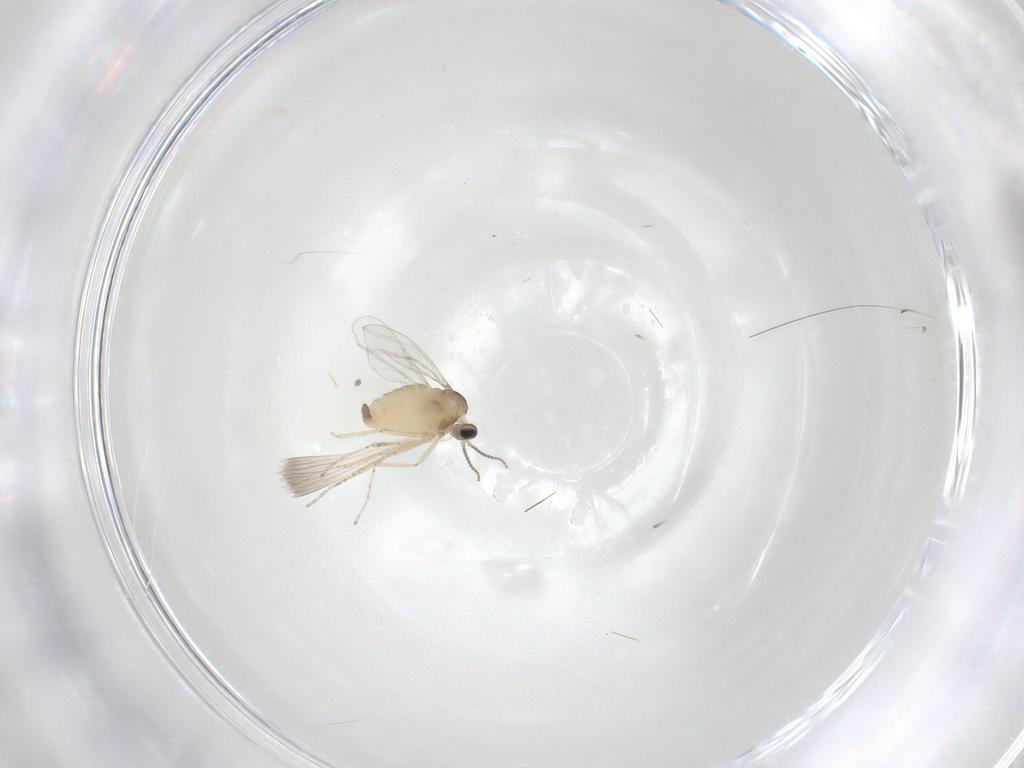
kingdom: Animalia
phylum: Arthropoda
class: Insecta
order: Diptera
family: Cecidomyiidae
